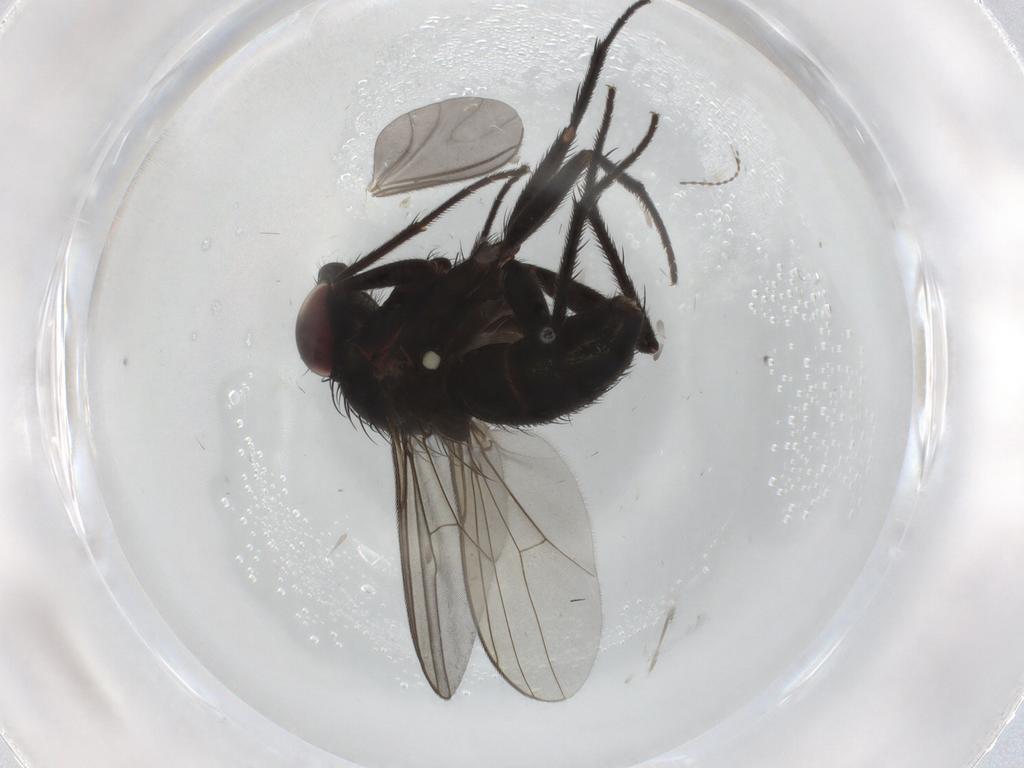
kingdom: Animalia
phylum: Arthropoda
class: Insecta
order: Diptera
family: Dolichopodidae
